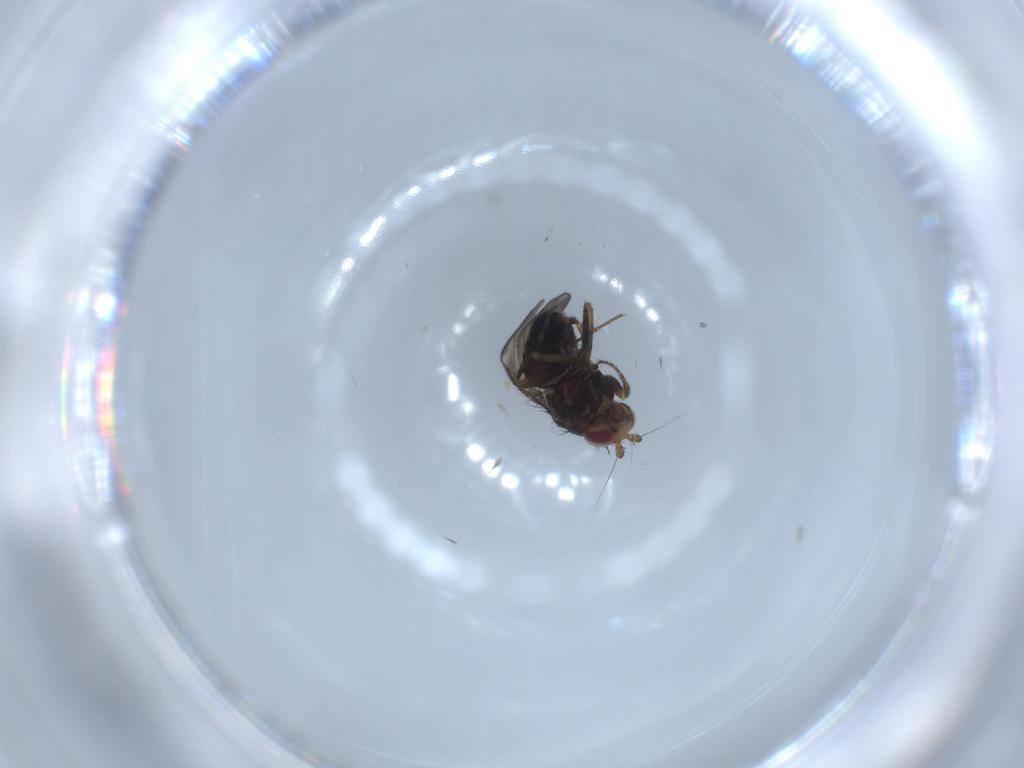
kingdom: Animalia
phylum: Arthropoda
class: Insecta
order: Diptera
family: Sphaeroceridae
